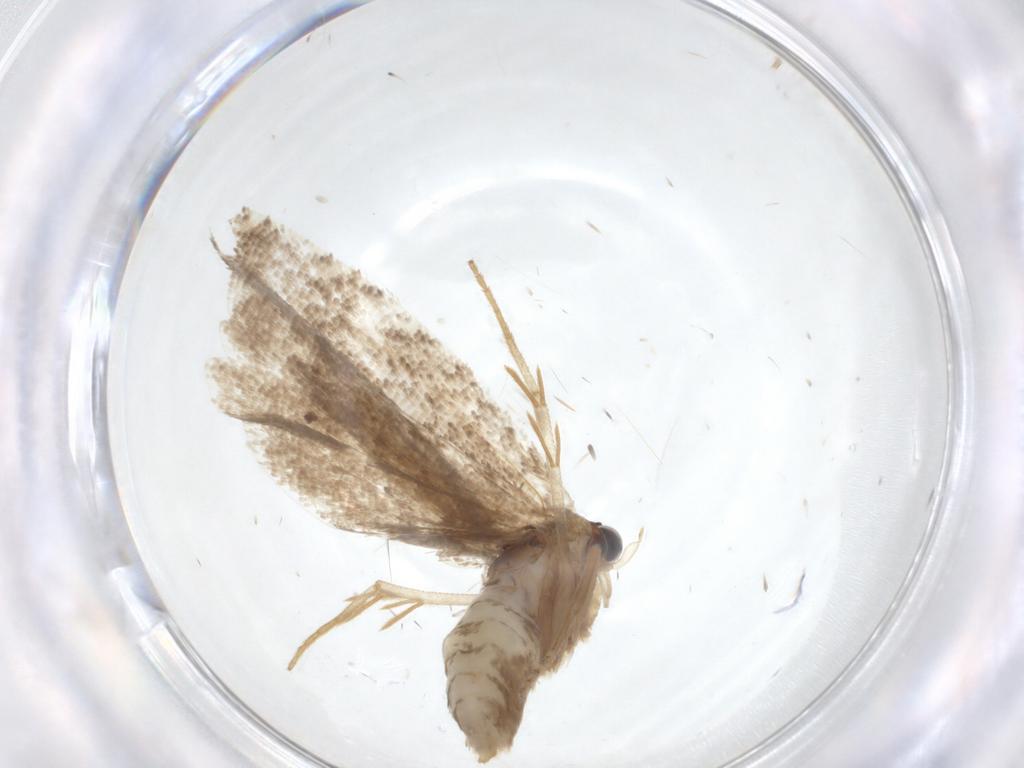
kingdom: Animalia
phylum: Arthropoda
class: Insecta
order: Lepidoptera
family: Tortricidae
